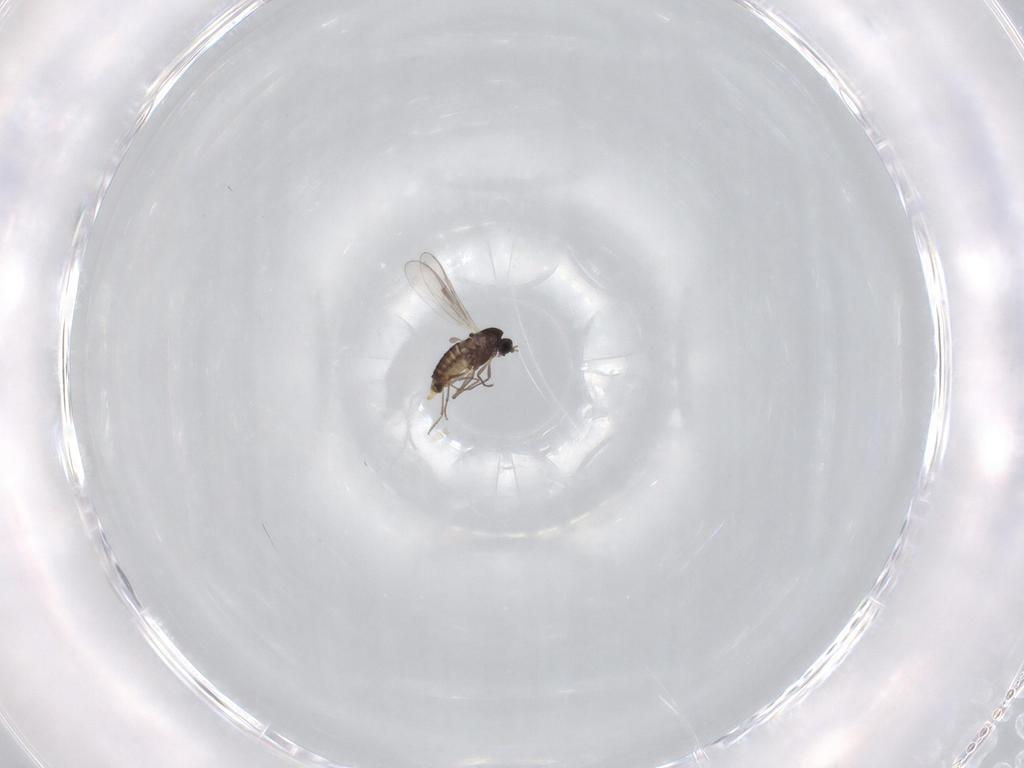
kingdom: Animalia
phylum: Arthropoda
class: Insecta
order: Diptera
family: Chironomidae
